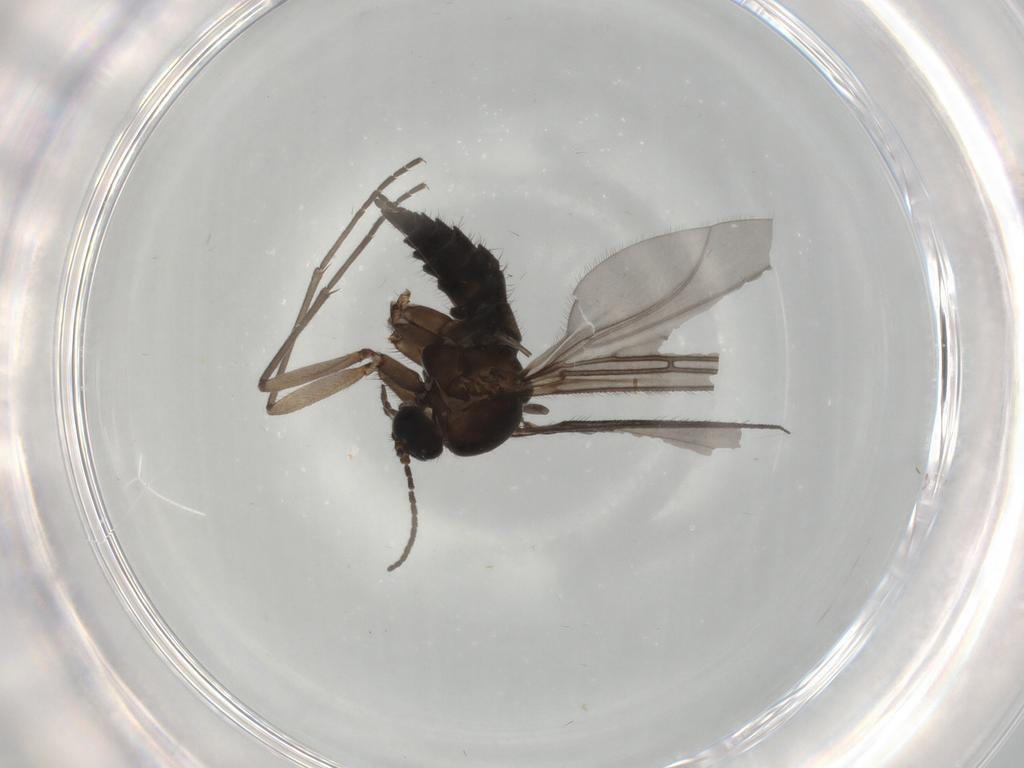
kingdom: Animalia
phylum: Arthropoda
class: Insecta
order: Diptera
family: Sciaridae
